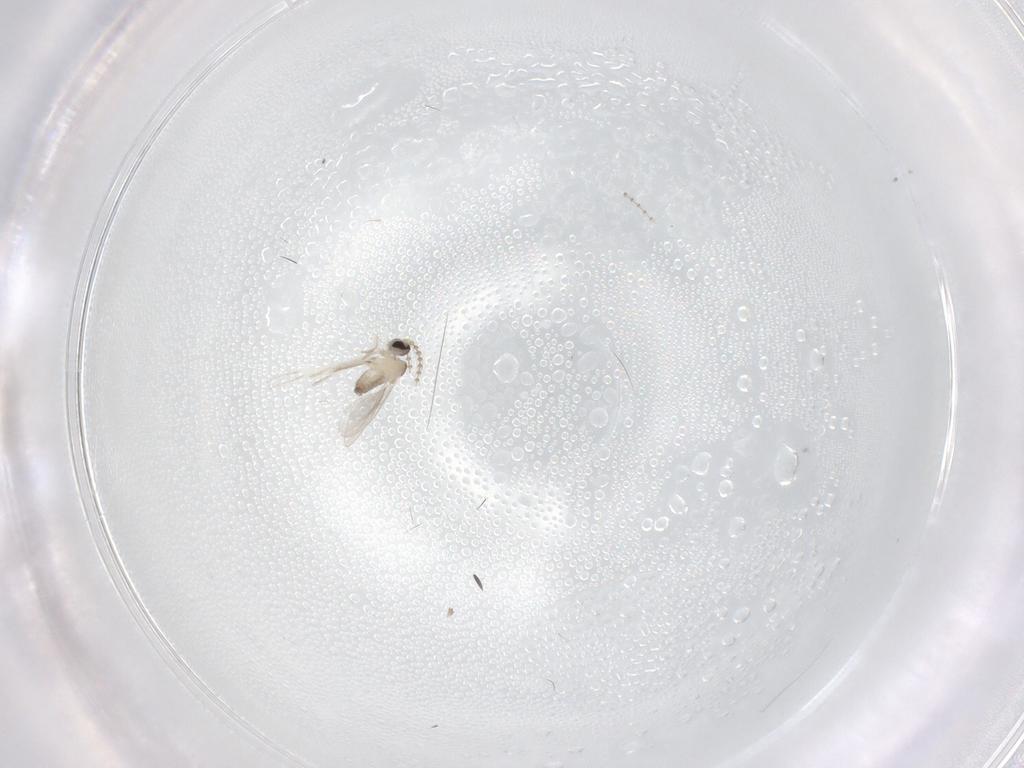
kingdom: Animalia
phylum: Arthropoda
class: Insecta
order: Diptera
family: Cecidomyiidae
